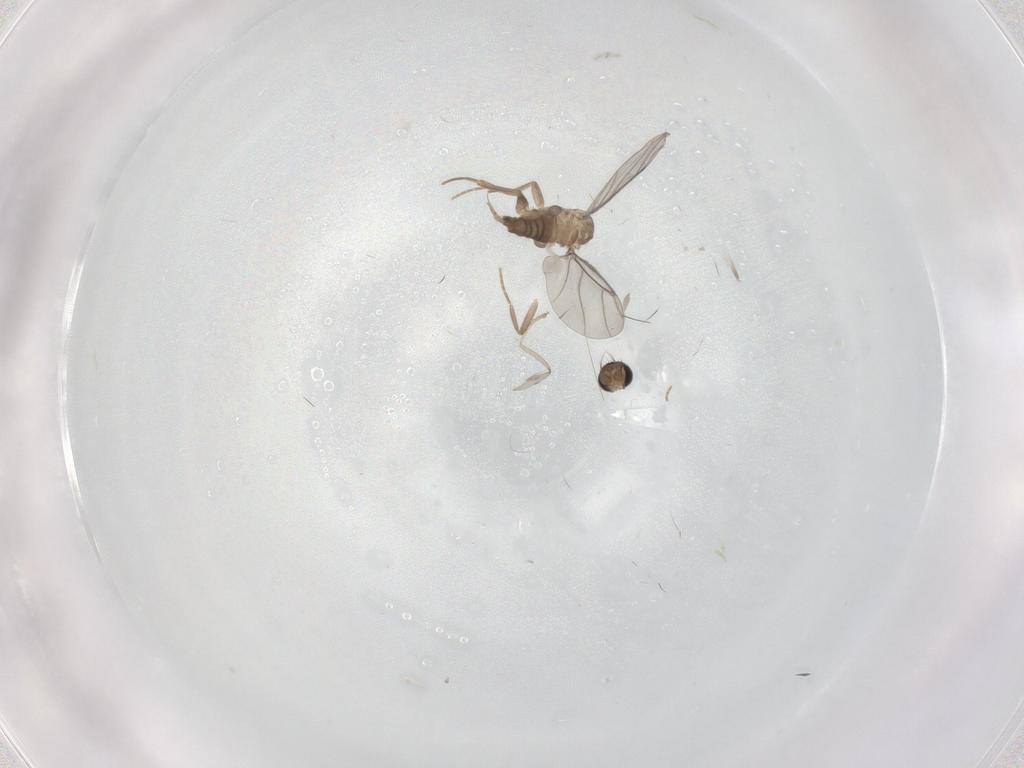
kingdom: Animalia
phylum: Arthropoda
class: Insecta
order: Diptera
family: Cecidomyiidae
